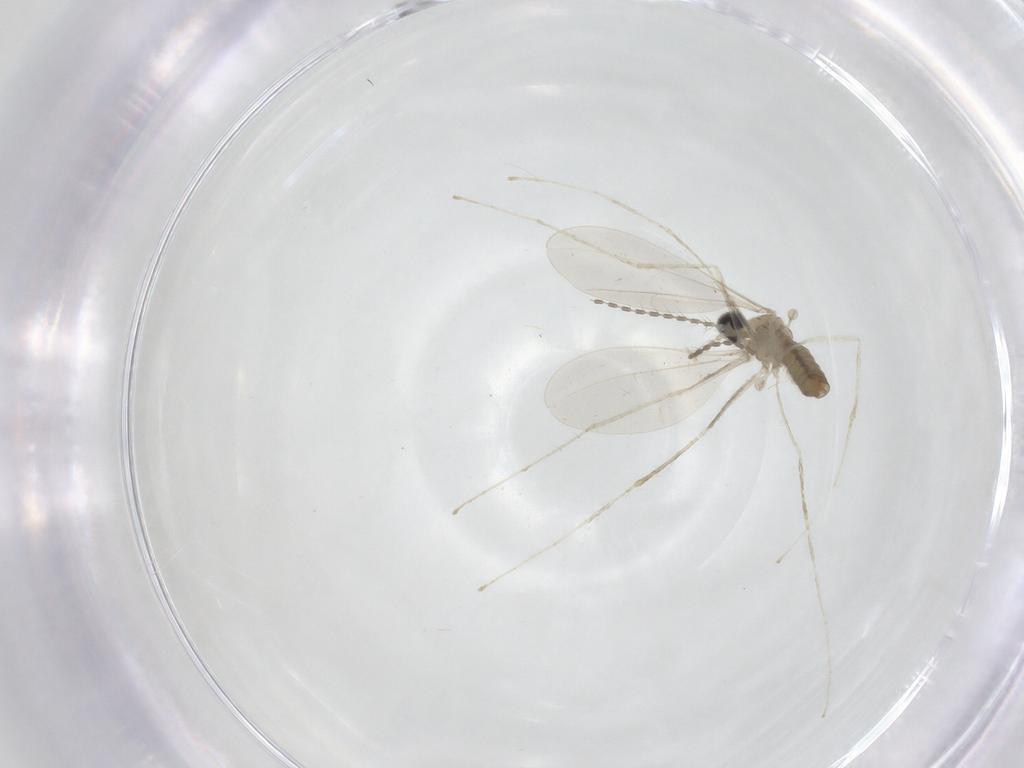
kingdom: Animalia
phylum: Arthropoda
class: Insecta
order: Diptera
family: Cecidomyiidae
